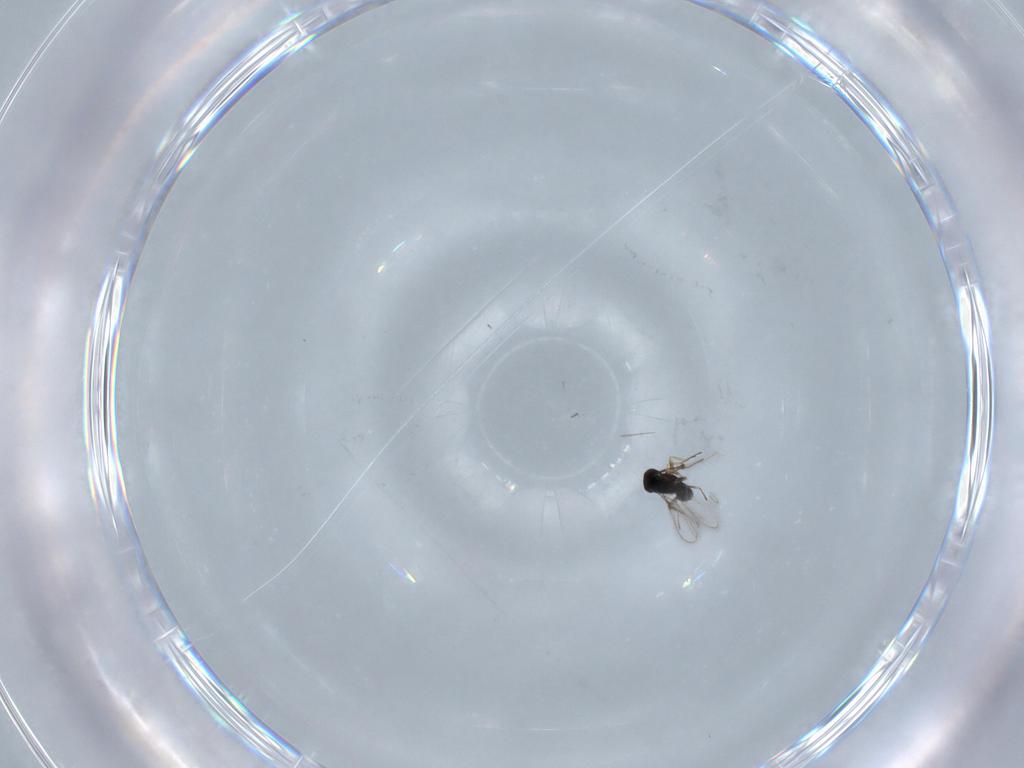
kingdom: Animalia
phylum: Arthropoda
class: Insecta
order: Hymenoptera
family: Mymaridae
